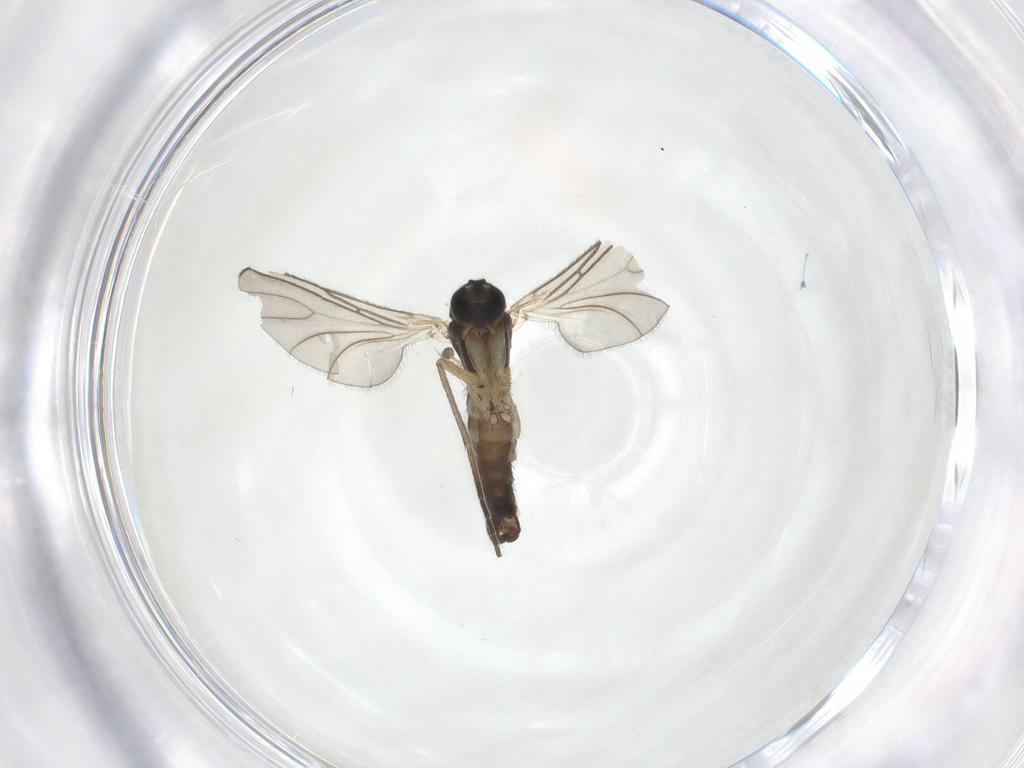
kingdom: Animalia
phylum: Arthropoda
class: Insecta
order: Diptera
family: Sciaridae
